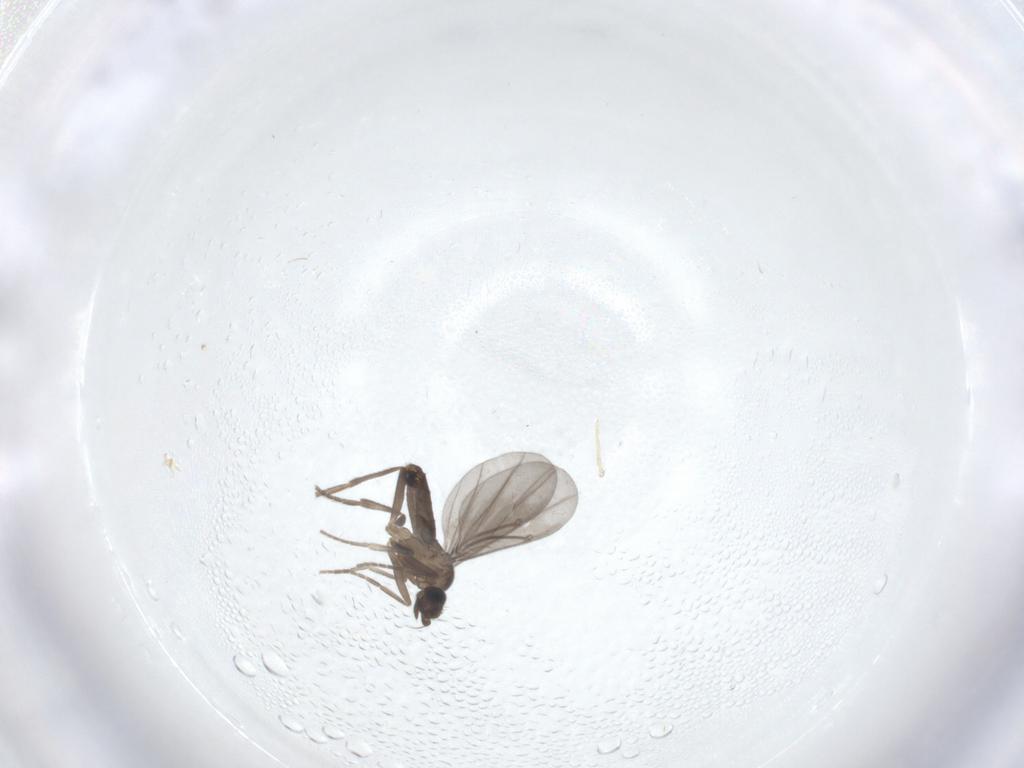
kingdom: Animalia
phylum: Arthropoda
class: Insecta
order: Diptera
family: Phoridae
